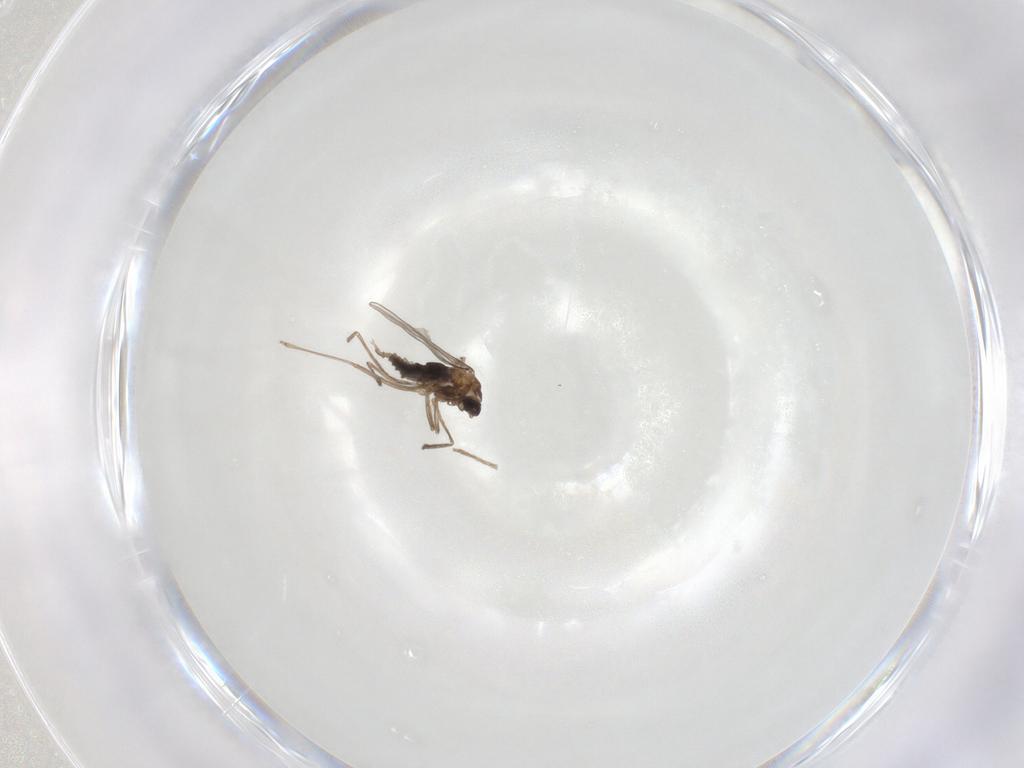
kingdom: Animalia
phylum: Arthropoda
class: Insecta
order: Diptera
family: Cecidomyiidae
